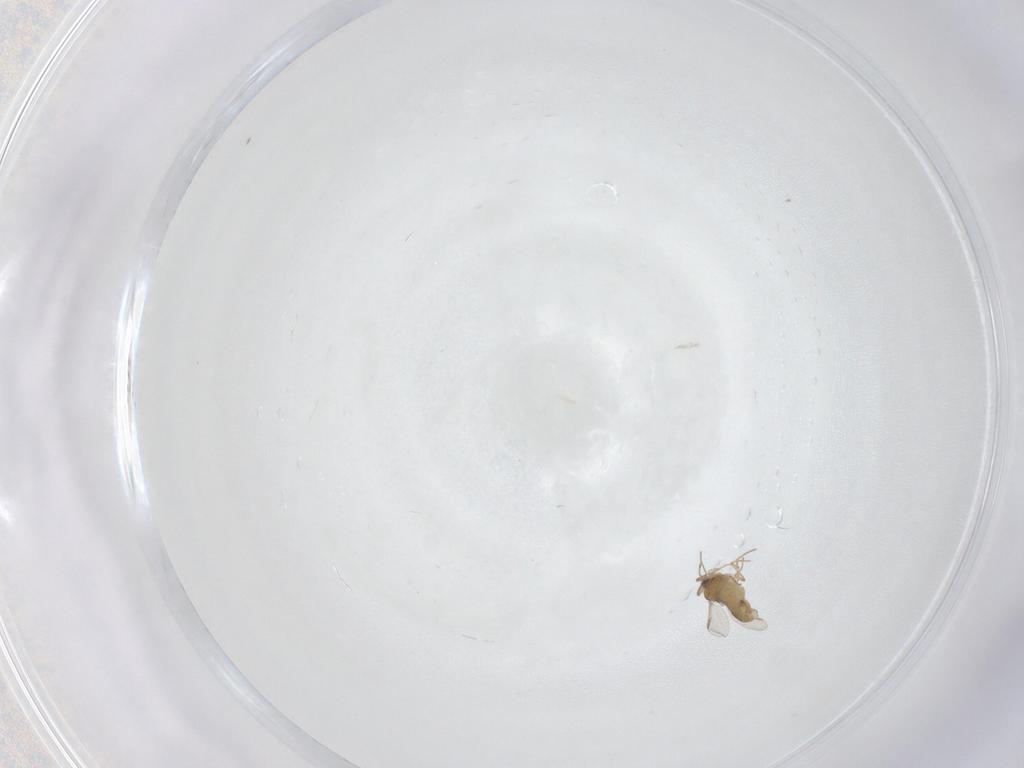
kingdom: Animalia
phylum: Arthropoda
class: Insecta
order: Diptera
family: Chironomidae
